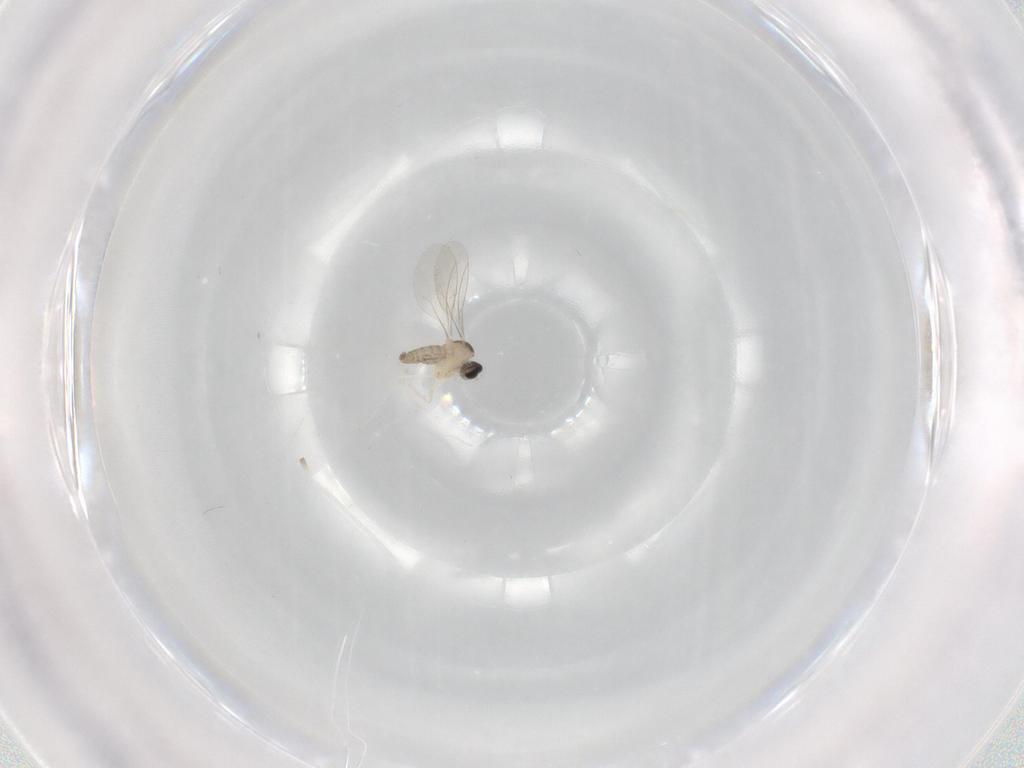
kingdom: Animalia
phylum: Arthropoda
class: Insecta
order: Diptera
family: Cecidomyiidae
